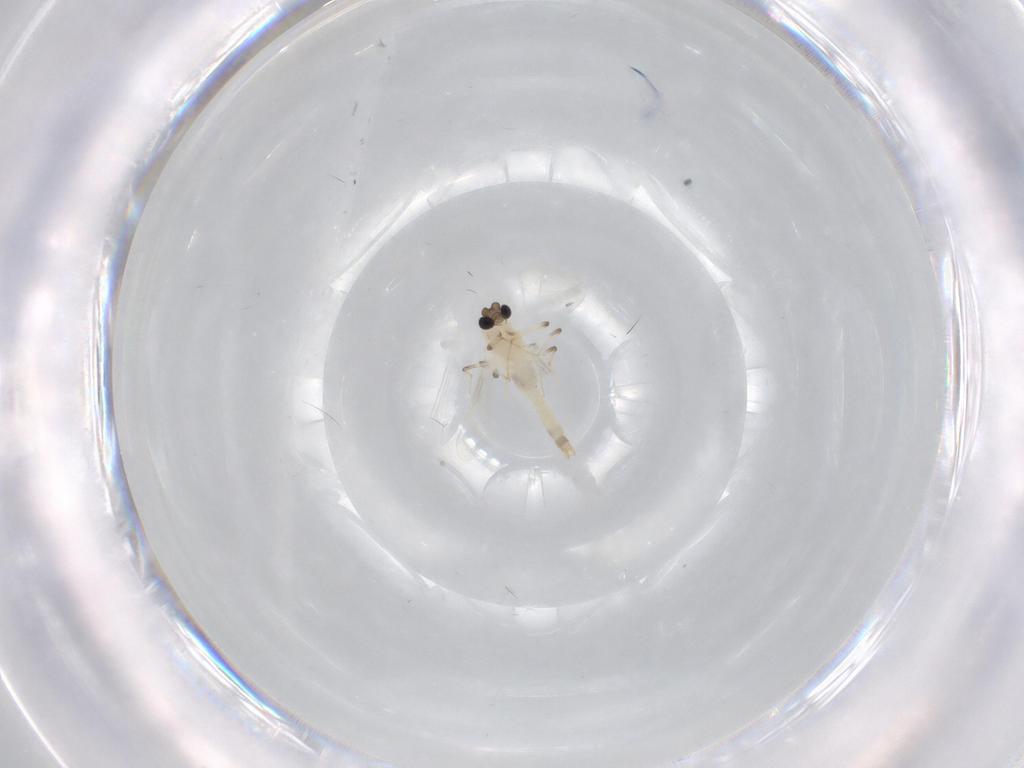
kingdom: Animalia
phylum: Arthropoda
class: Insecta
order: Diptera
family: Chironomidae
